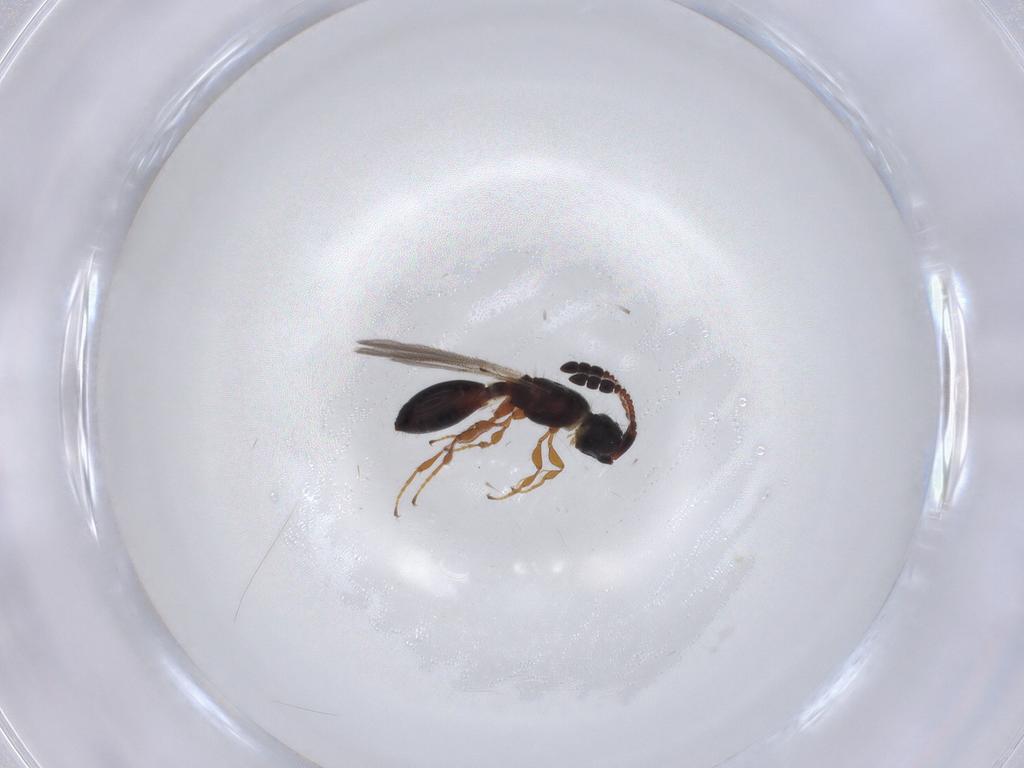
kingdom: Animalia
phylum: Arthropoda
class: Insecta
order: Hymenoptera
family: Diapriidae
